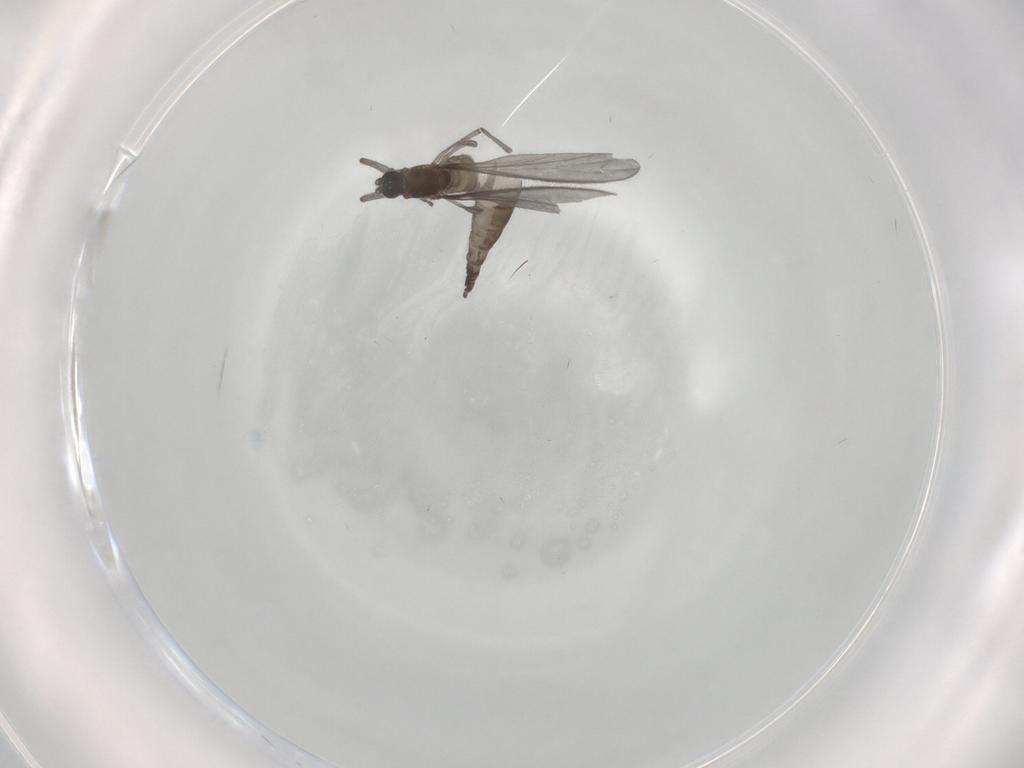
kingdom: Animalia
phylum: Arthropoda
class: Insecta
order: Diptera
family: Sciaridae
